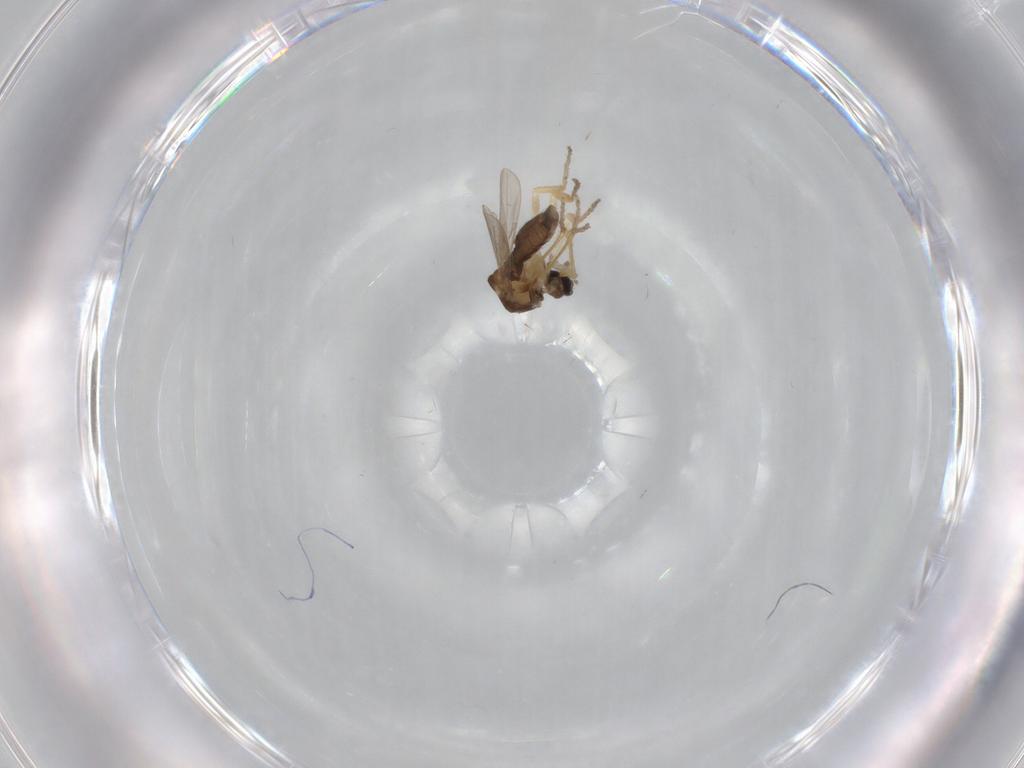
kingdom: Animalia
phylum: Arthropoda
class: Insecta
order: Diptera
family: Ceratopogonidae
